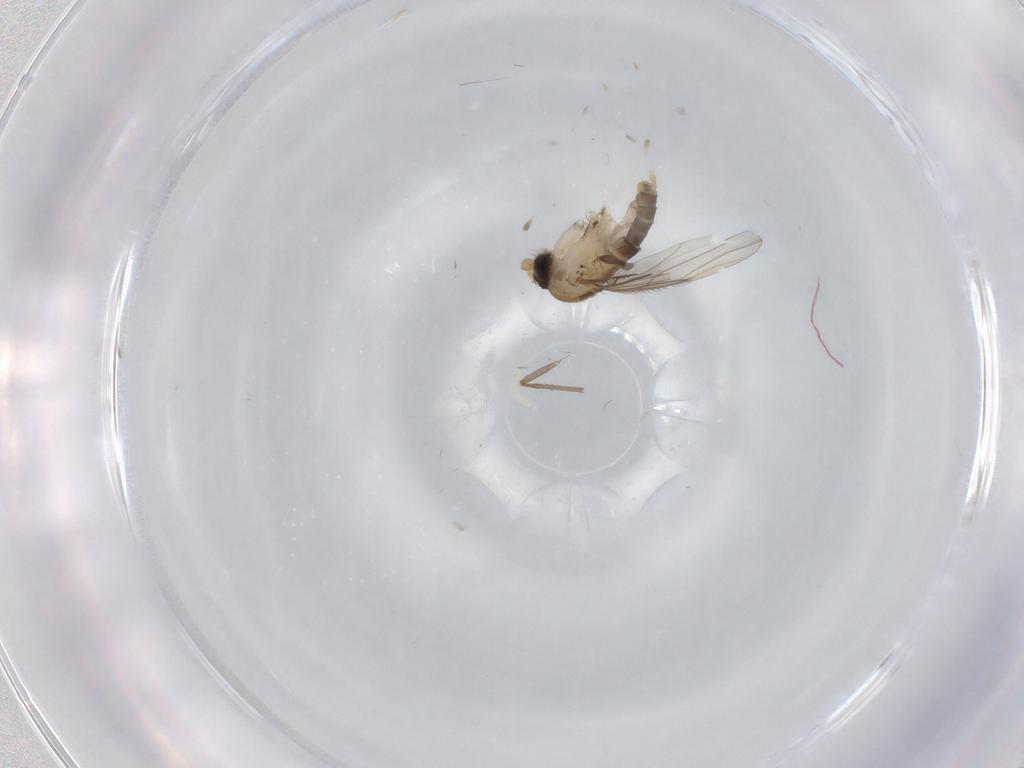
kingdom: Animalia
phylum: Arthropoda
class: Insecta
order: Diptera
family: Phoridae
